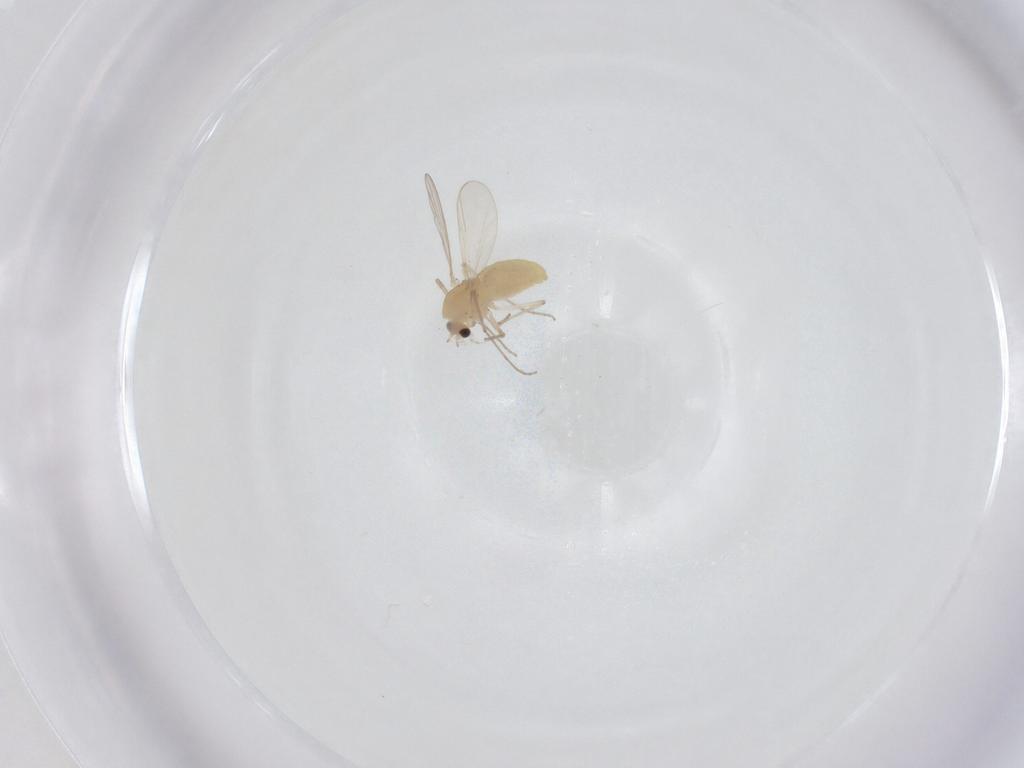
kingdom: Animalia
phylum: Arthropoda
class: Insecta
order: Diptera
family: Chironomidae
